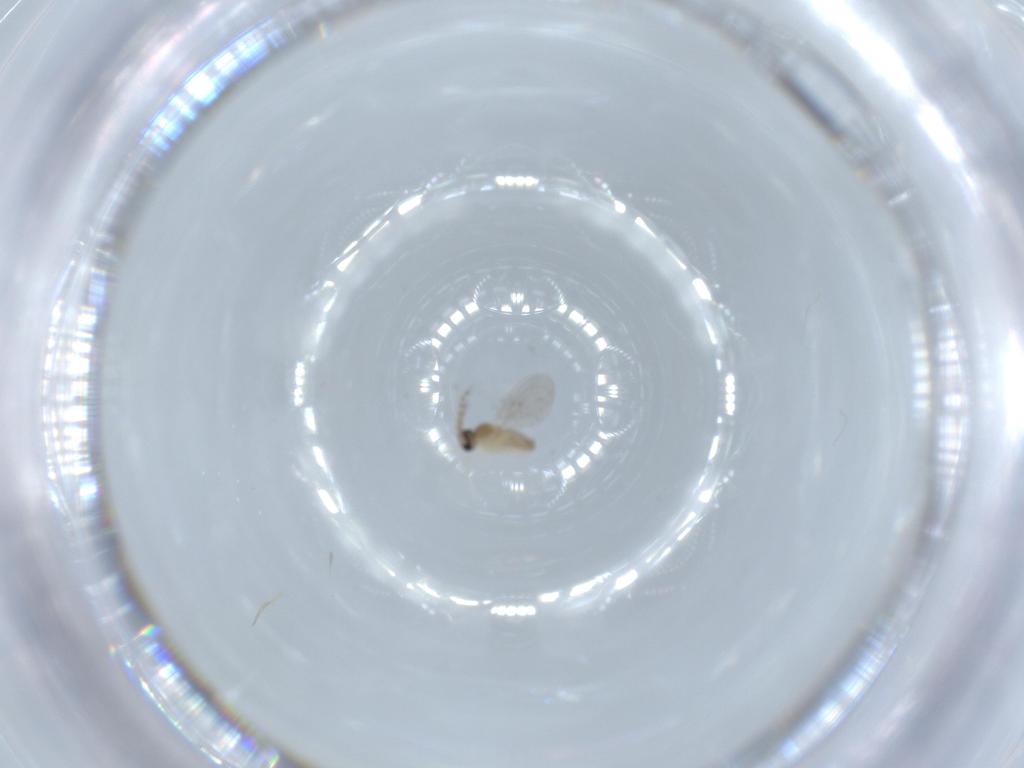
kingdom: Animalia
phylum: Arthropoda
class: Insecta
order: Diptera
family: Cecidomyiidae
